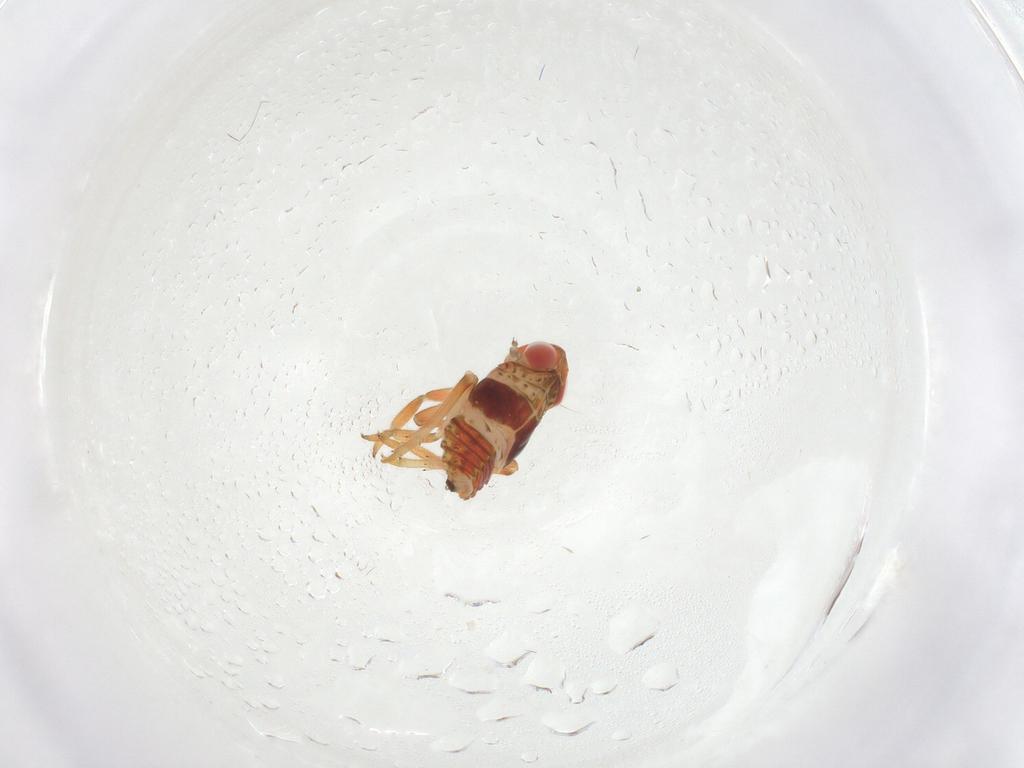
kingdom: Animalia
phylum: Arthropoda
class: Insecta
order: Hemiptera
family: Issidae
